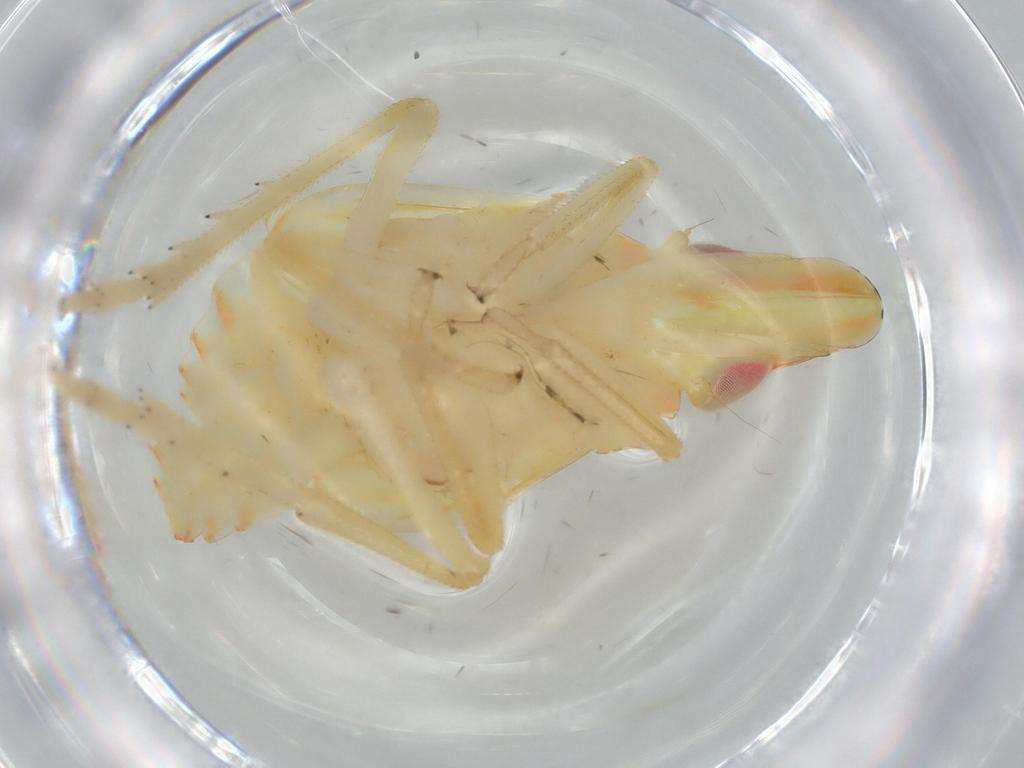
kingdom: Animalia
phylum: Arthropoda
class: Insecta
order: Hemiptera
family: Tropiduchidae
